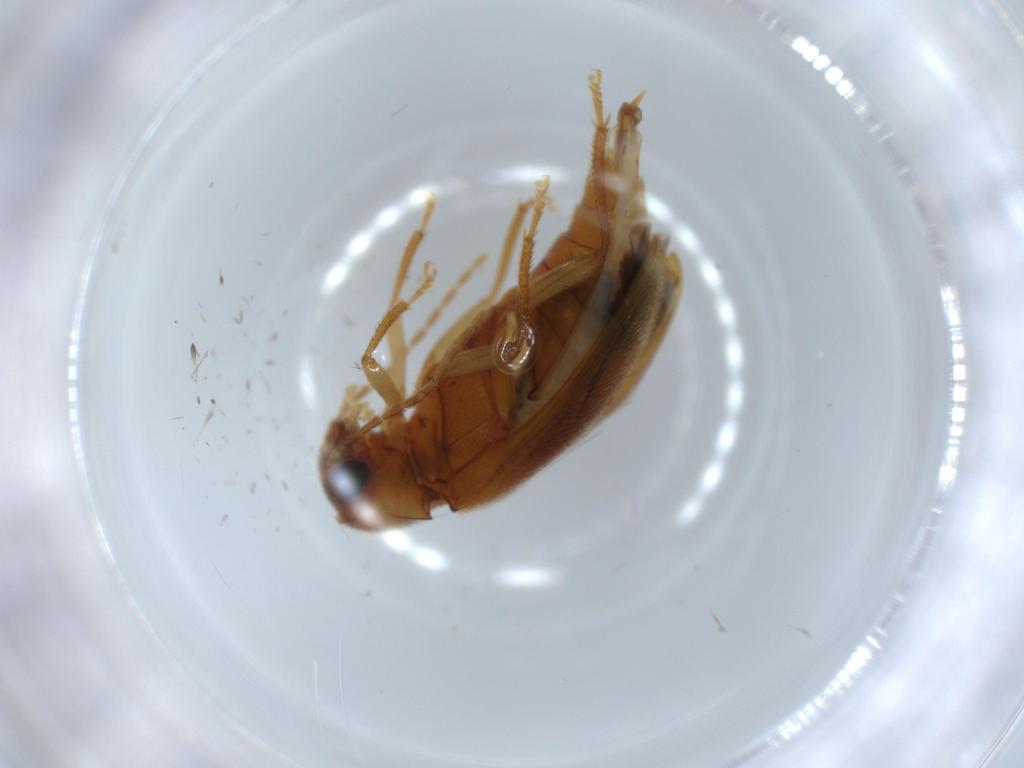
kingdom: Animalia
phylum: Arthropoda
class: Insecta
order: Coleoptera
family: Ptilodactylidae
